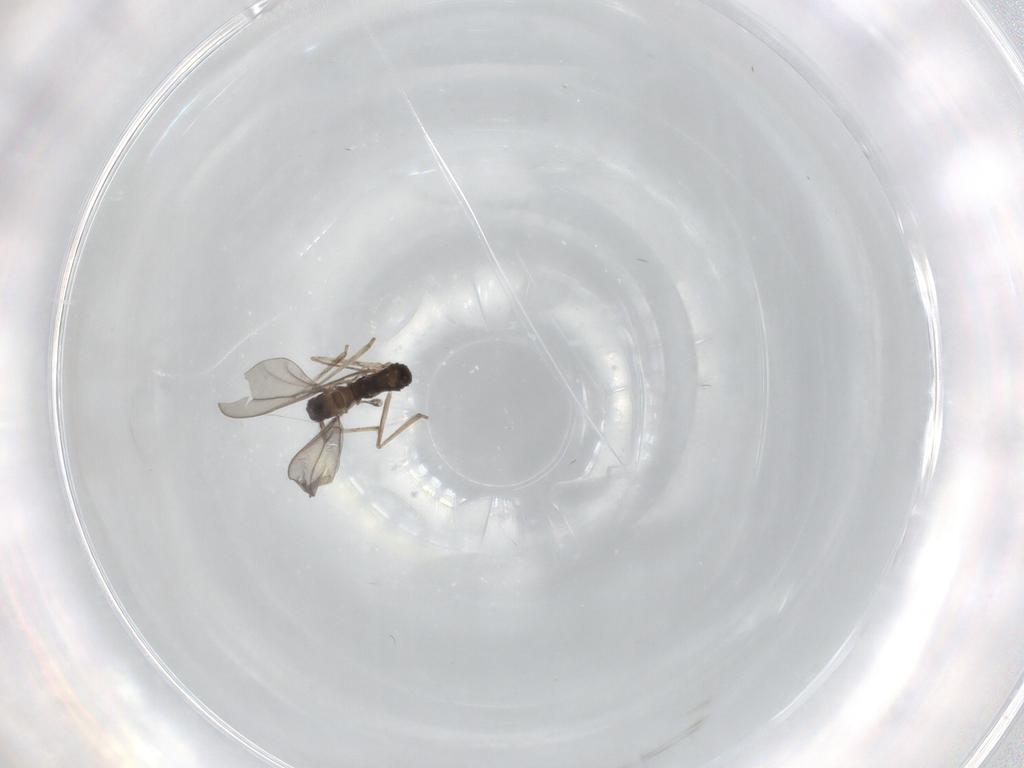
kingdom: Animalia
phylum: Arthropoda
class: Insecta
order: Diptera
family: Cecidomyiidae
